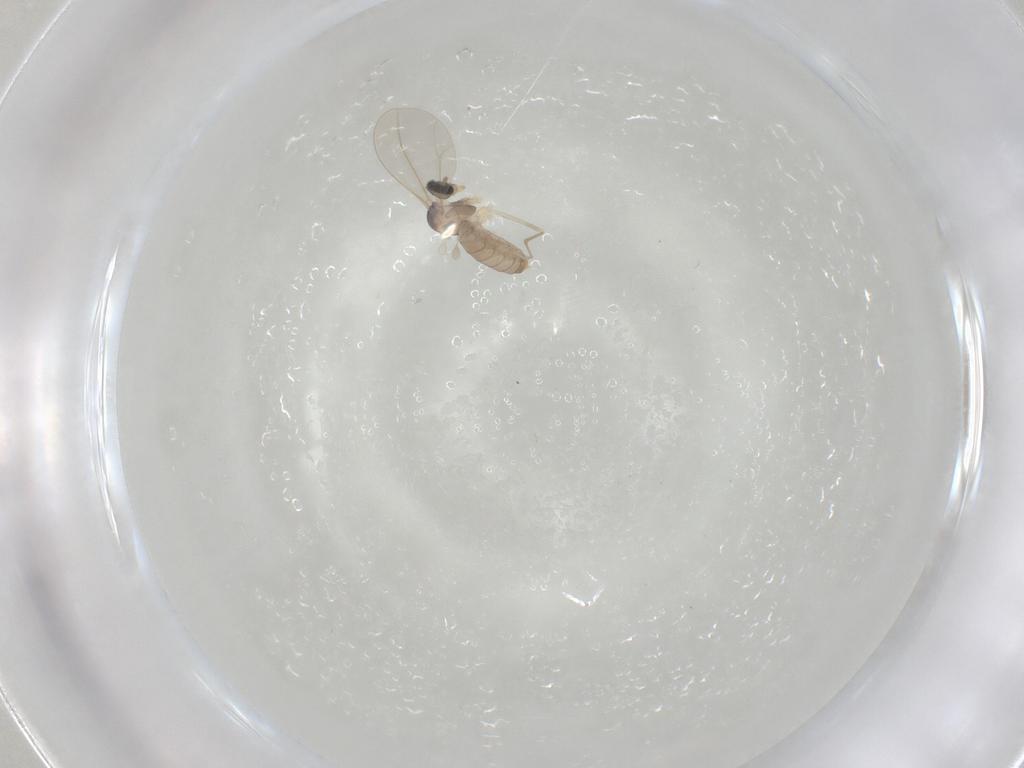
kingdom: Animalia
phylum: Arthropoda
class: Insecta
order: Diptera
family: Cecidomyiidae
